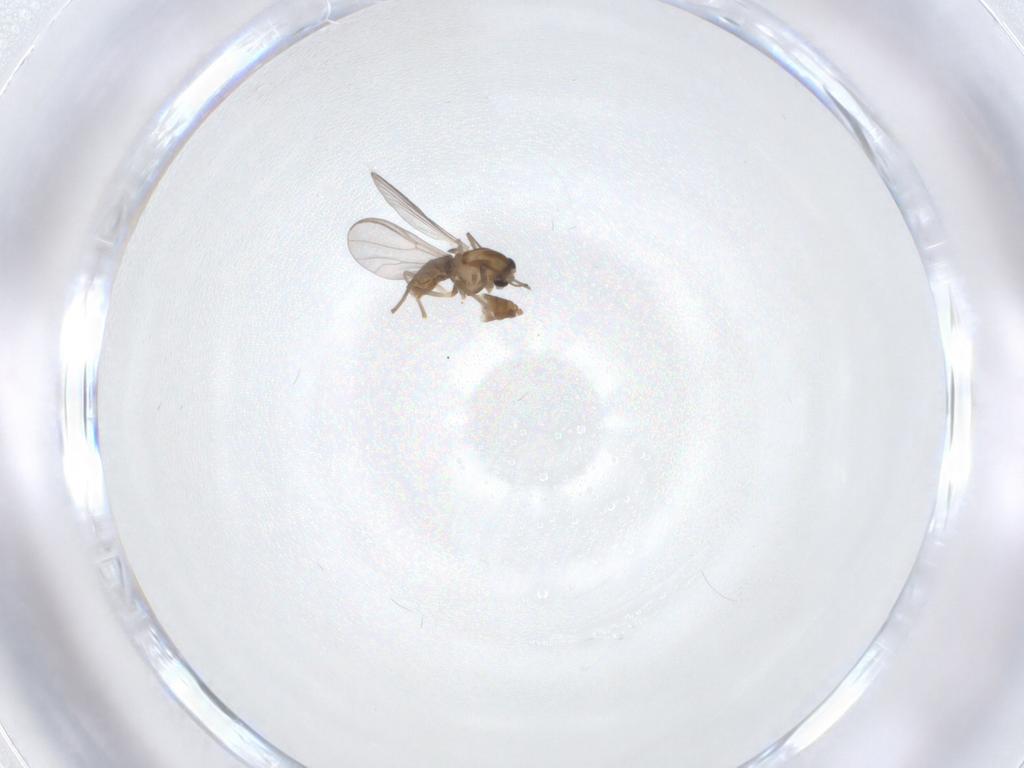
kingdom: Animalia
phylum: Arthropoda
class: Insecta
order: Diptera
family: Chironomidae
